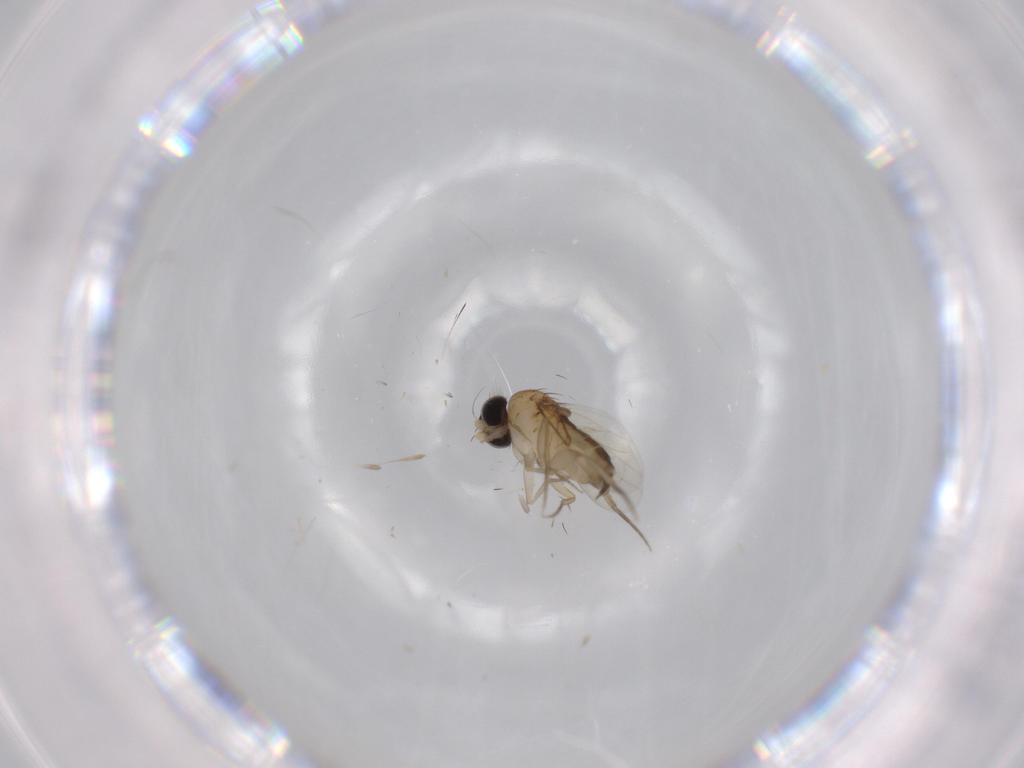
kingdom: Animalia
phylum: Arthropoda
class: Insecta
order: Diptera
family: Phoridae
